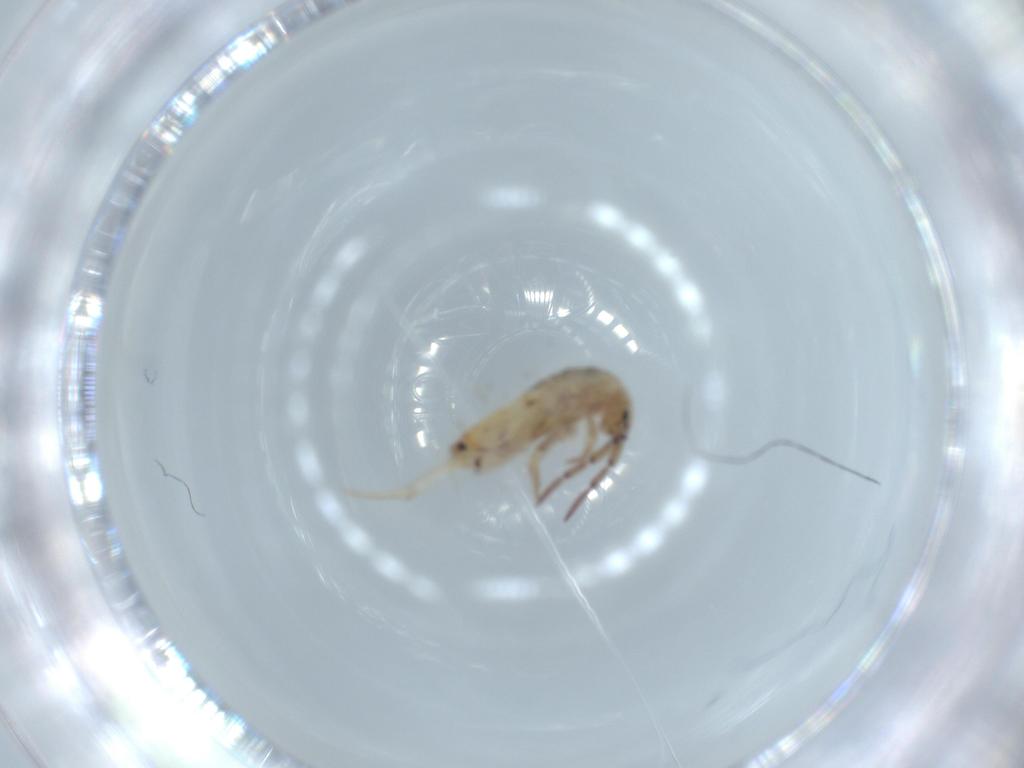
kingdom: Animalia
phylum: Arthropoda
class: Collembola
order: Entomobryomorpha
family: Entomobryidae
